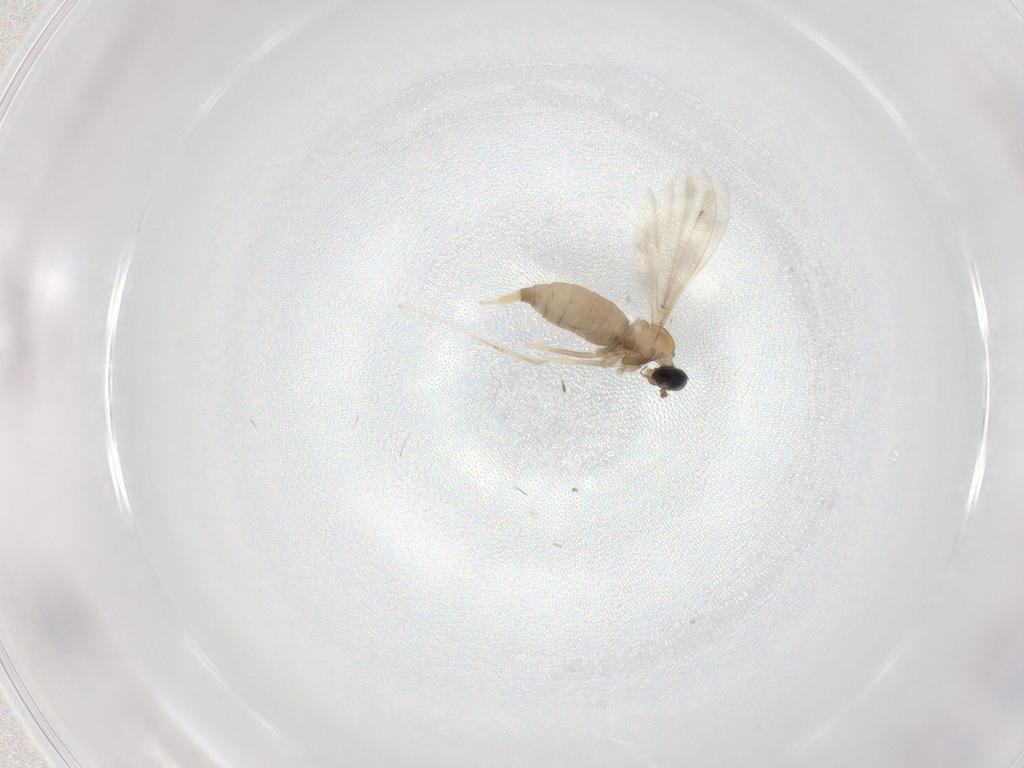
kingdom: Animalia
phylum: Arthropoda
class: Insecta
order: Diptera
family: Cecidomyiidae
